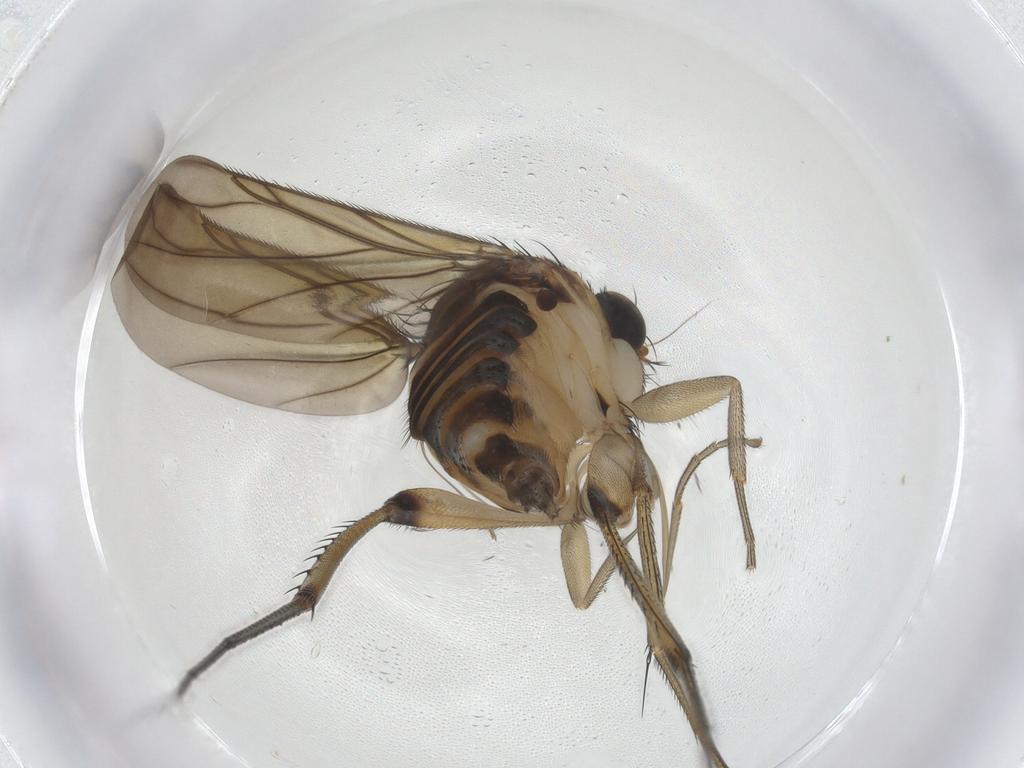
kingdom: Animalia
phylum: Arthropoda
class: Insecta
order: Diptera
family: Phoridae
